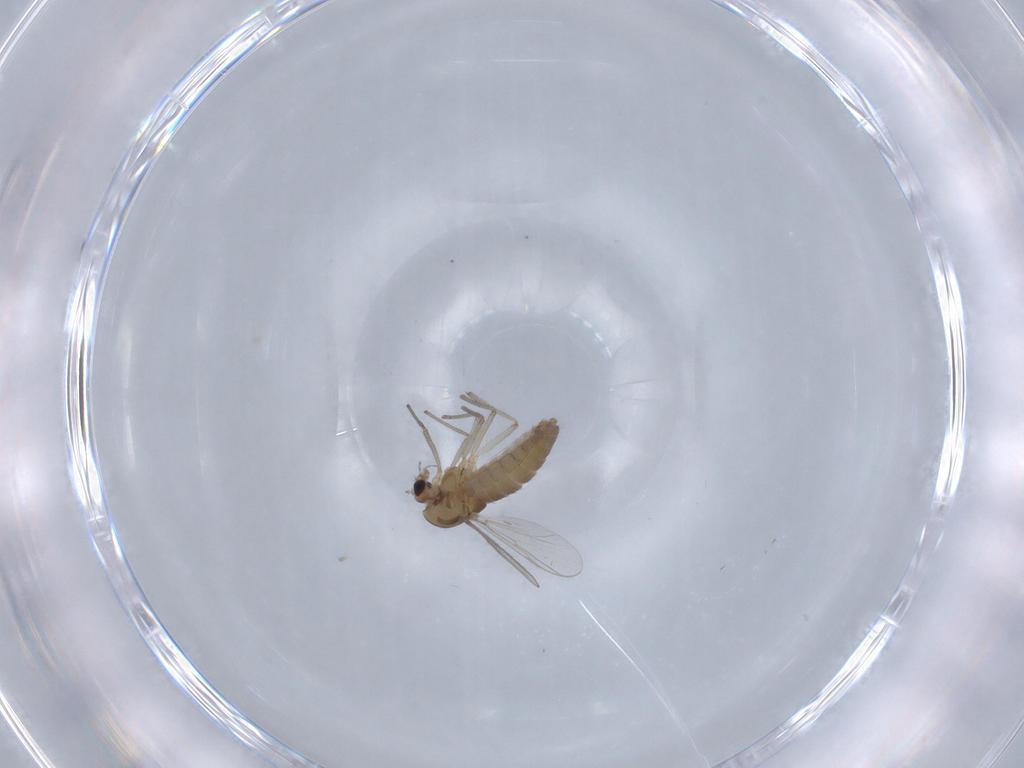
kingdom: Animalia
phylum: Arthropoda
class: Insecta
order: Diptera
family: Chironomidae
